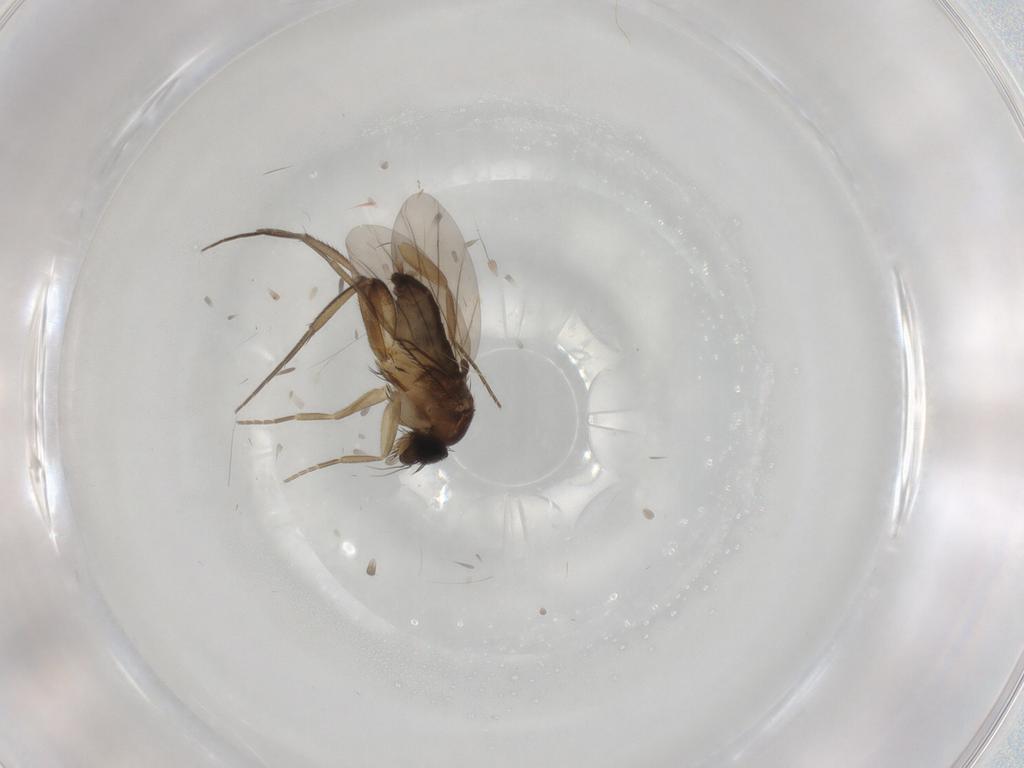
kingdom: Animalia
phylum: Arthropoda
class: Insecta
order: Diptera
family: Phoridae
